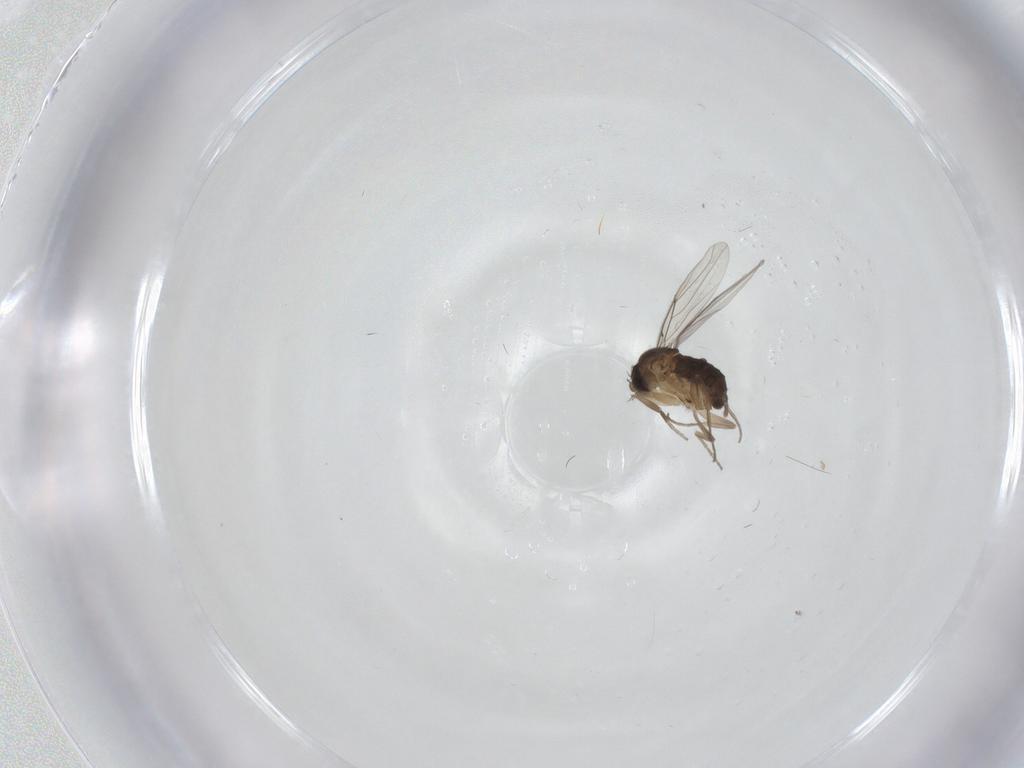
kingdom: Animalia
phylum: Arthropoda
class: Insecta
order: Diptera
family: Phoridae
